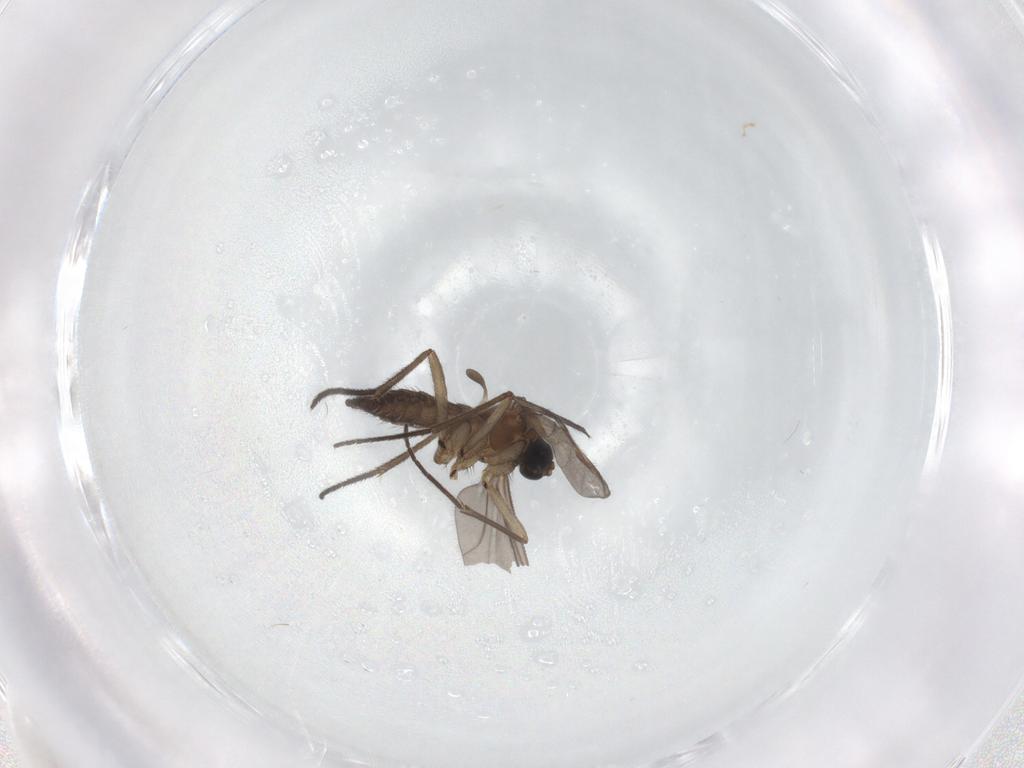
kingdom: Animalia
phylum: Arthropoda
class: Insecta
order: Diptera
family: Sciaridae
